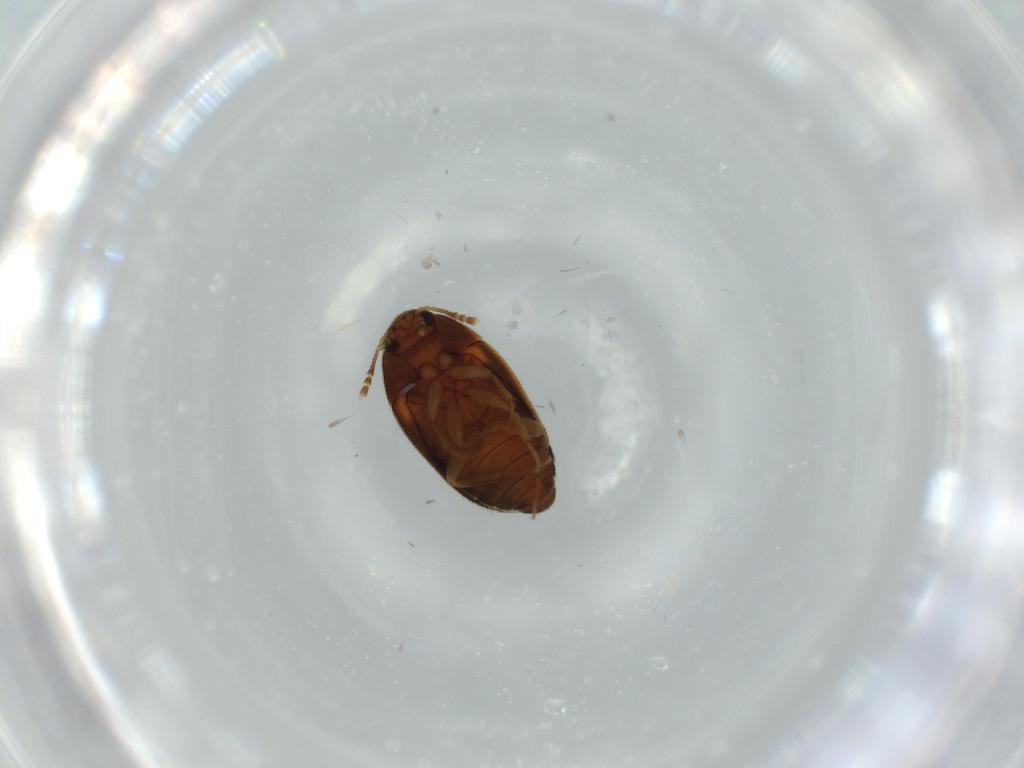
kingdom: Animalia
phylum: Arthropoda
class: Insecta
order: Coleoptera
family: Mycetophagidae
